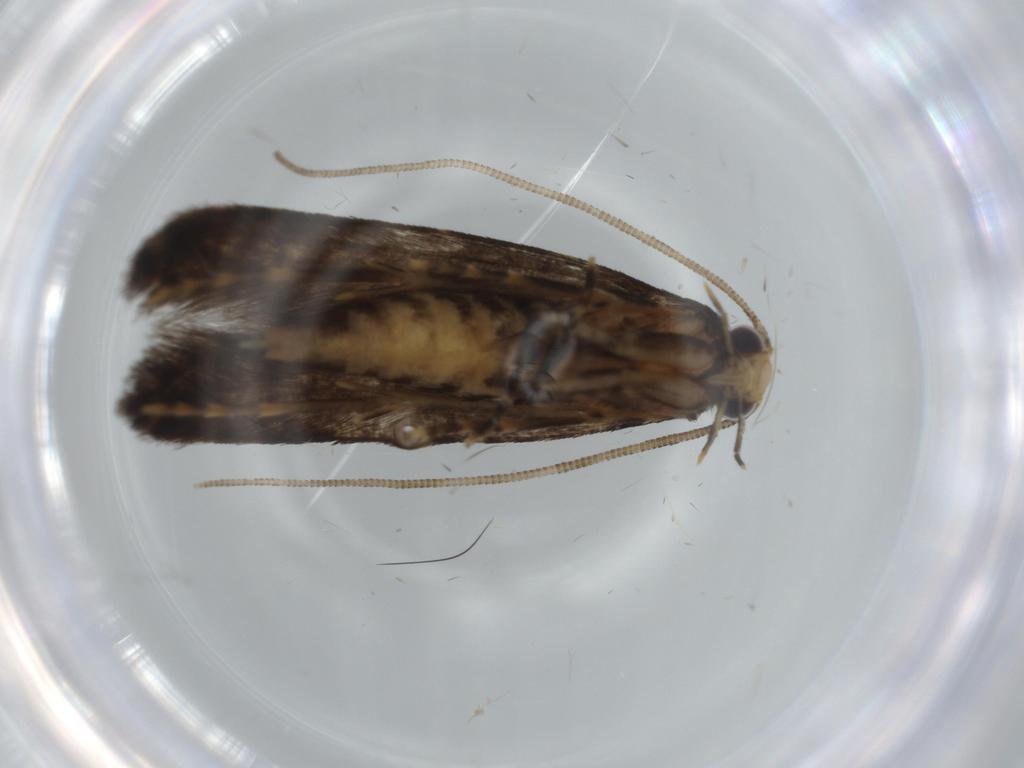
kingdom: Animalia
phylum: Arthropoda
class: Insecta
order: Lepidoptera
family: Tineidae
